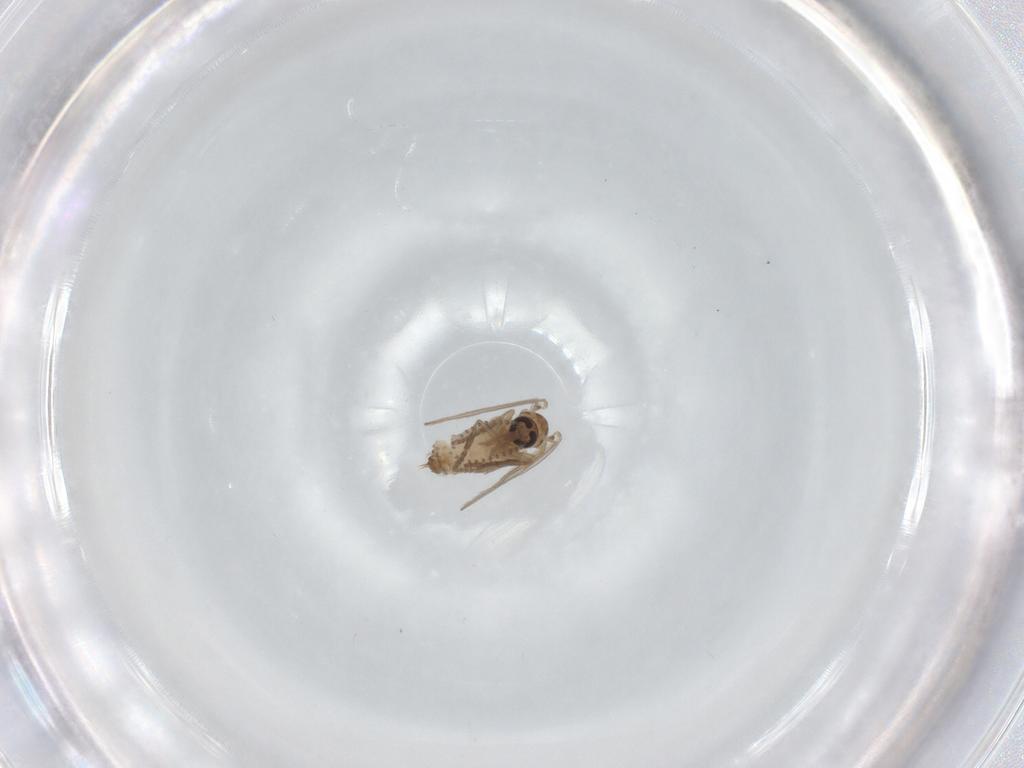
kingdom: Animalia
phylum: Arthropoda
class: Insecta
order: Diptera
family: Psychodidae
